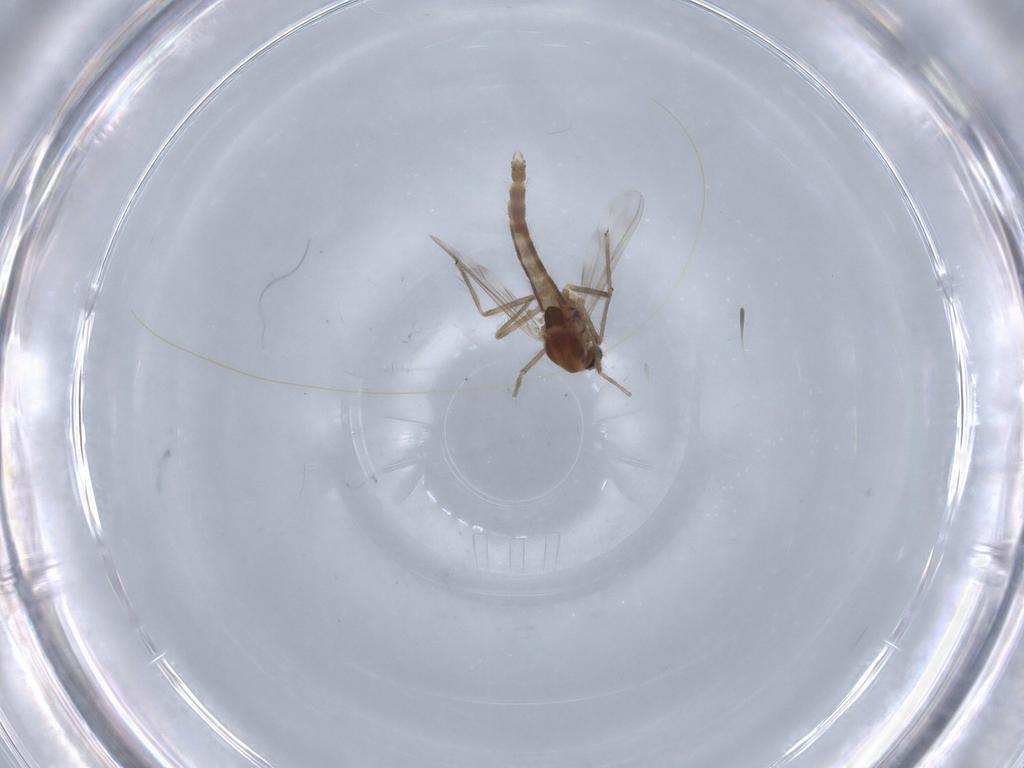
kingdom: Animalia
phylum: Arthropoda
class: Insecta
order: Diptera
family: Chironomidae
